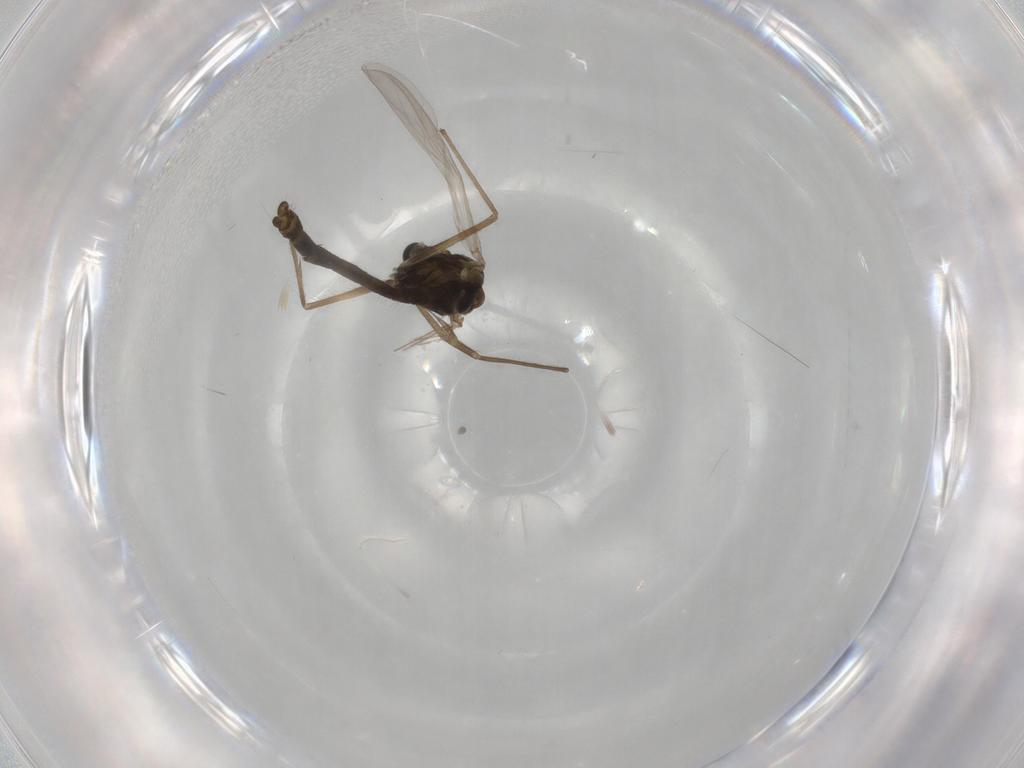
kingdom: Animalia
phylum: Arthropoda
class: Insecta
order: Diptera
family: Chironomidae
